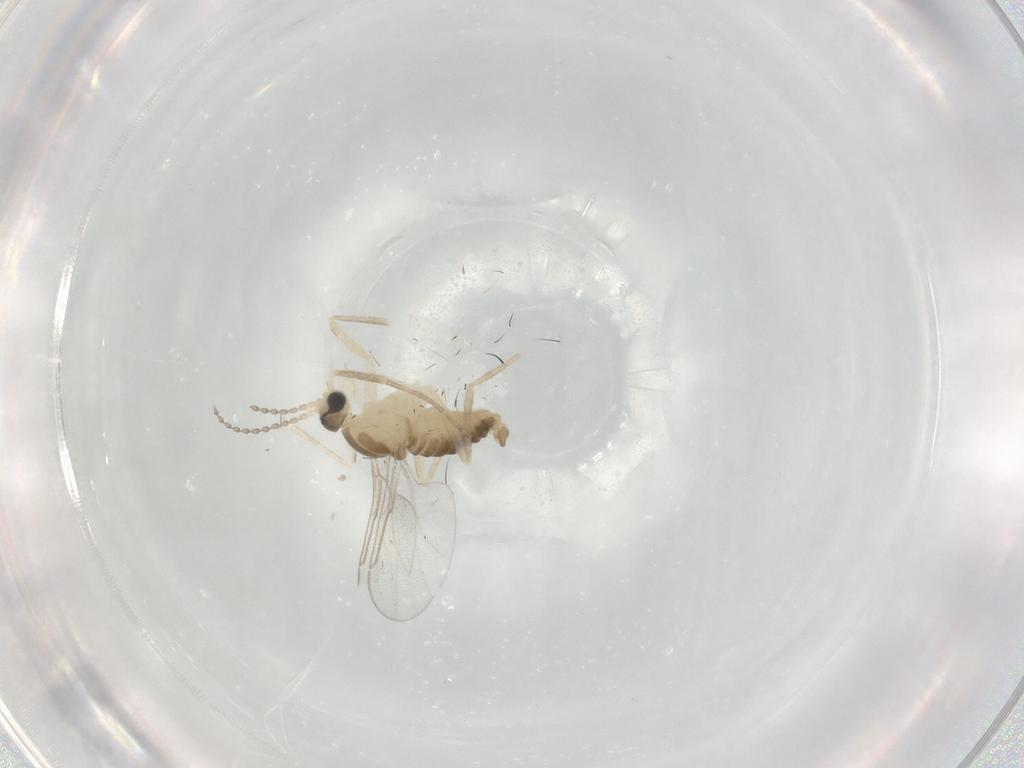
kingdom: Animalia
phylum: Arthropoda
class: Insecta
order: Diptera
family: Cecidomyiidae
